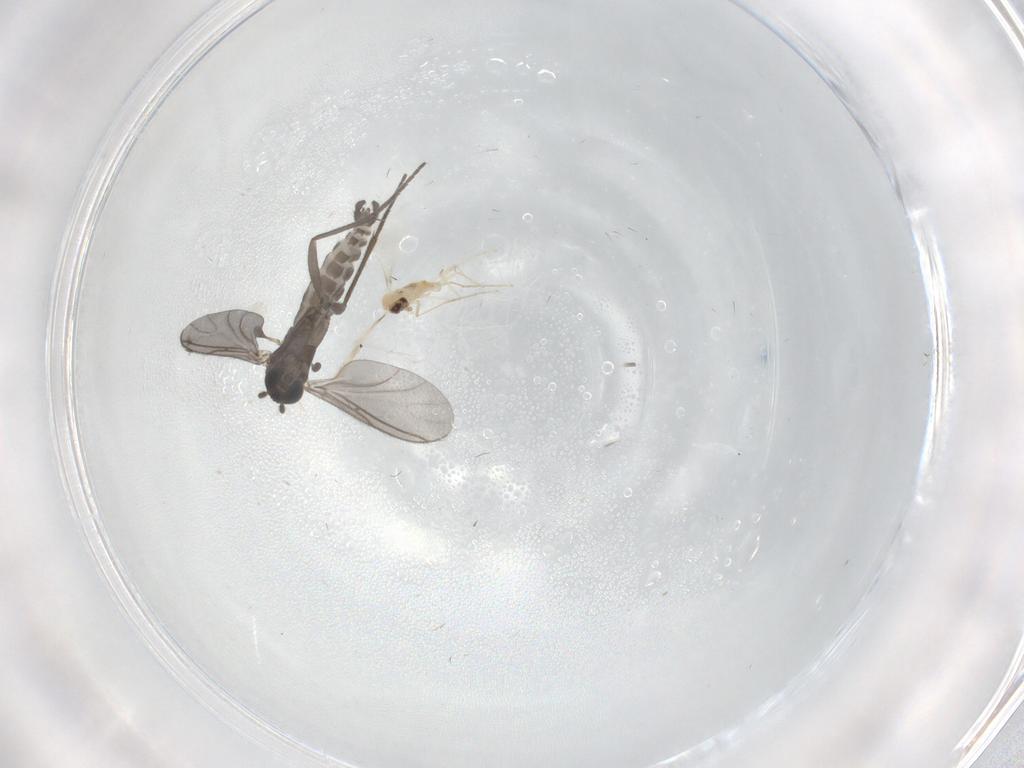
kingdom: Animalia
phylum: Arthropoda
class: Insecta
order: Diptera
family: Sciaridae
